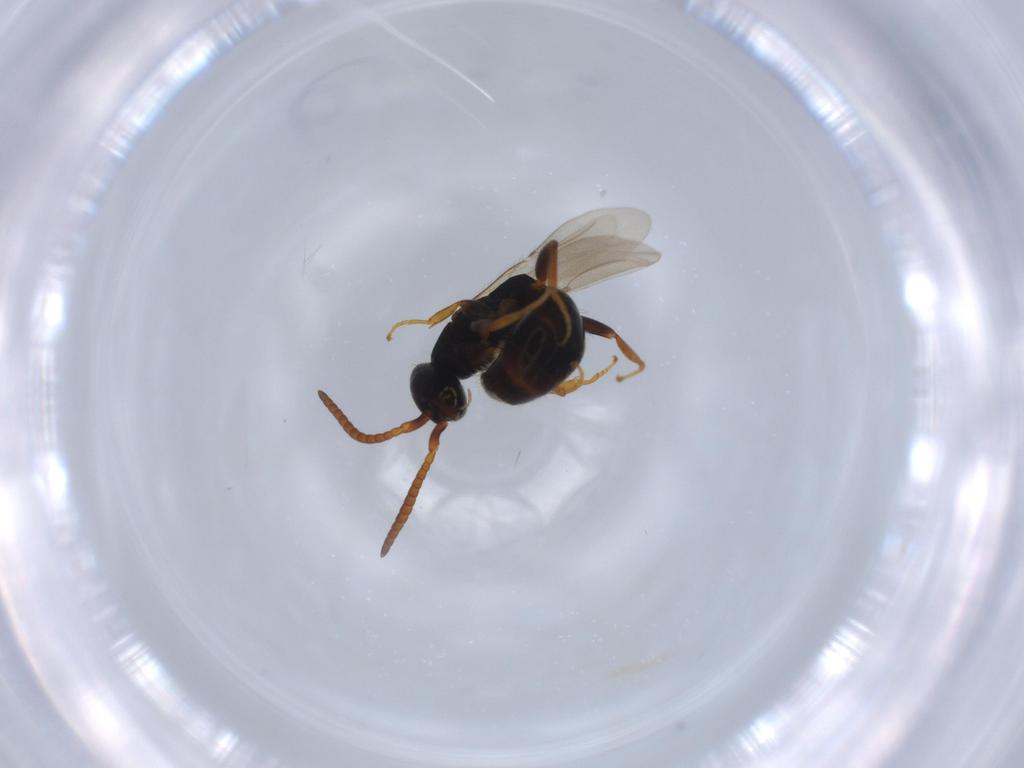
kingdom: Animalia
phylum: Arthropoda
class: Insecta
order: Hymenoptera
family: Bethylidae
